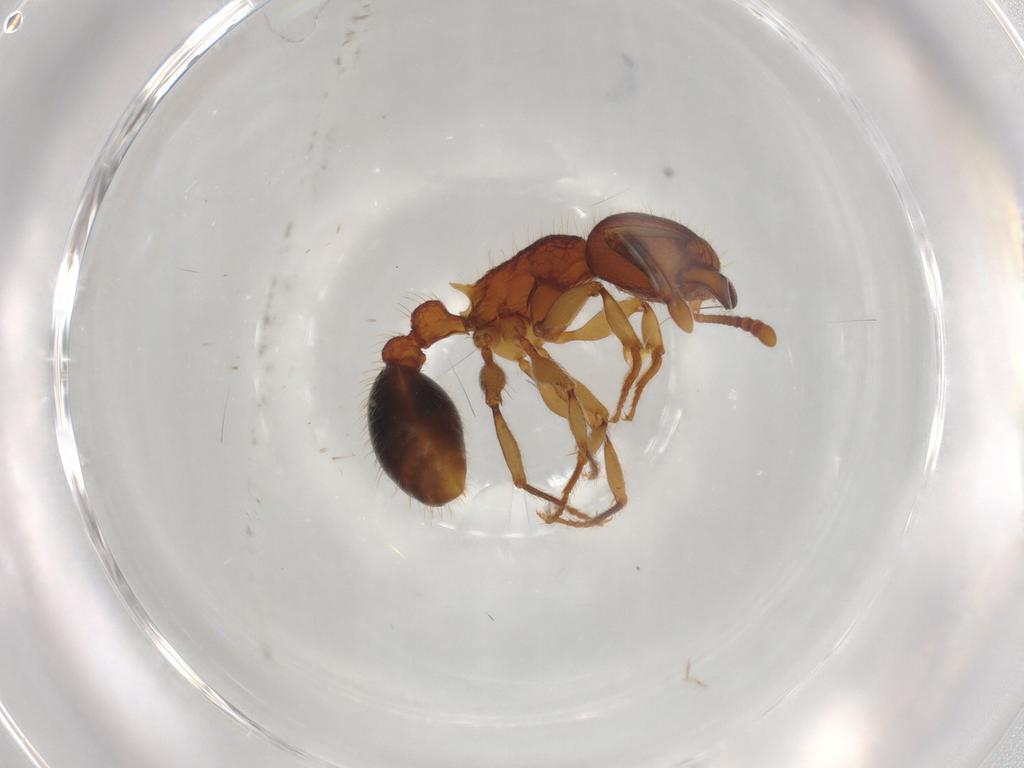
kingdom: Animalia
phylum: Arthropoda
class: Insecta
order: Hymenoptera
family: Formicidae
